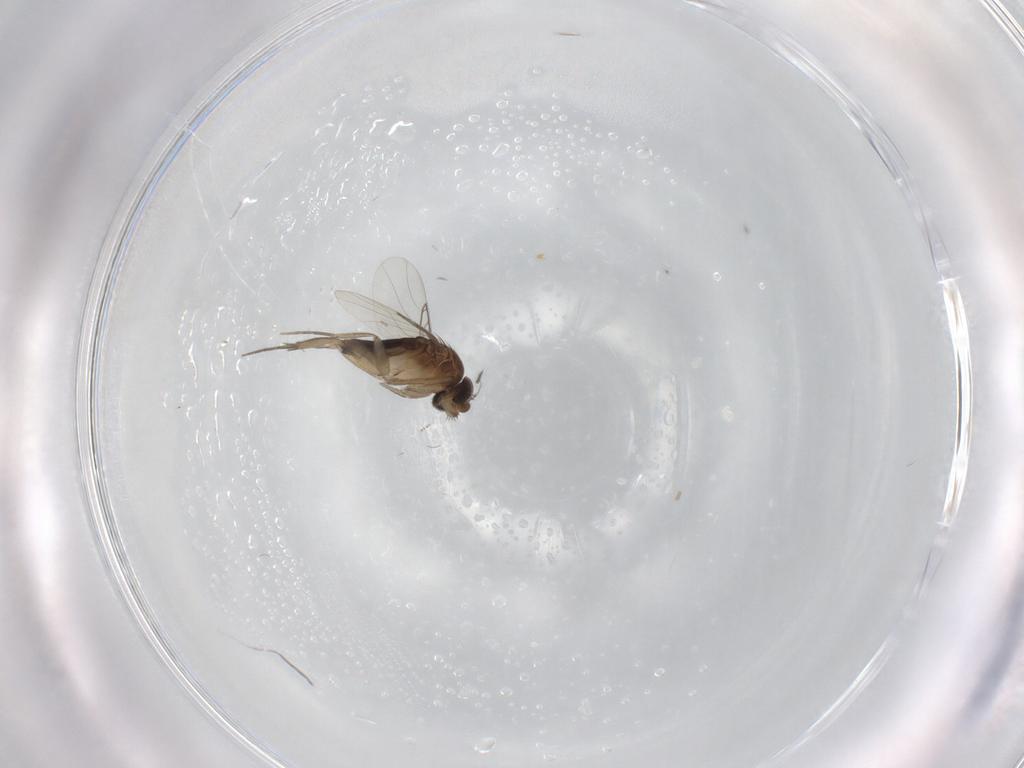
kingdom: Animalia
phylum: Arthropoda
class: Insecta
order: Diptera
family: Phoridae
